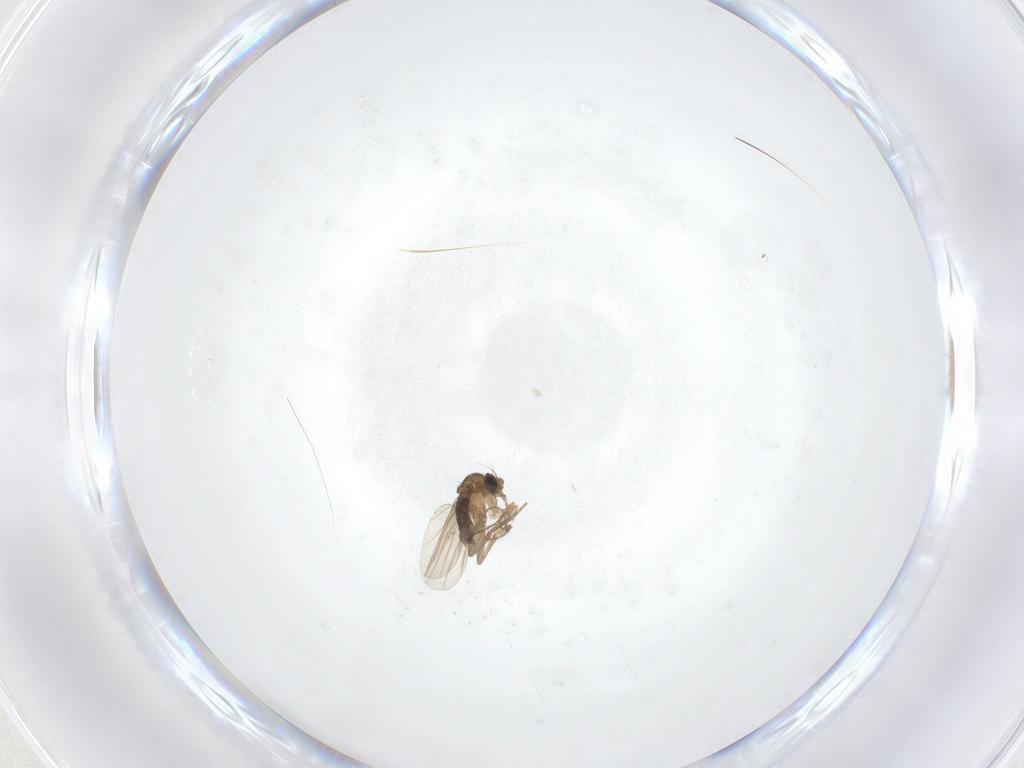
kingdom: Animalia
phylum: Arthropoda
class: Insecta
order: Diptera
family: Ceratopogonidae
